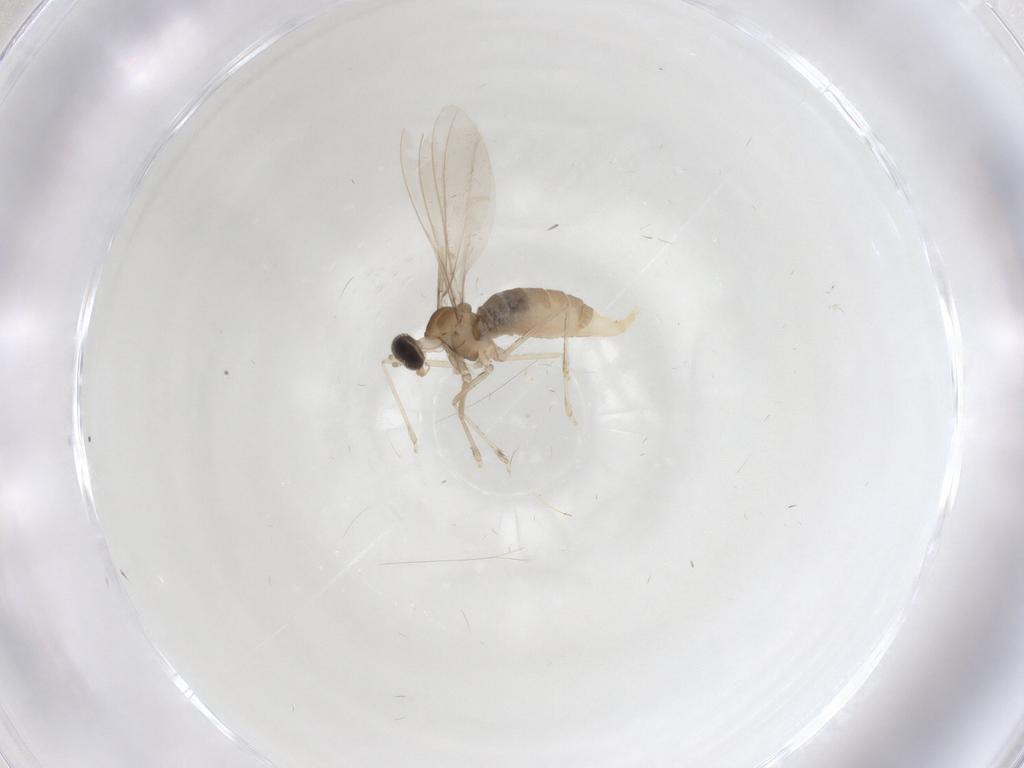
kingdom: Animalia
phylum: Arthropoda
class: Insecta
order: Diptera
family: Cecidomyiidae
